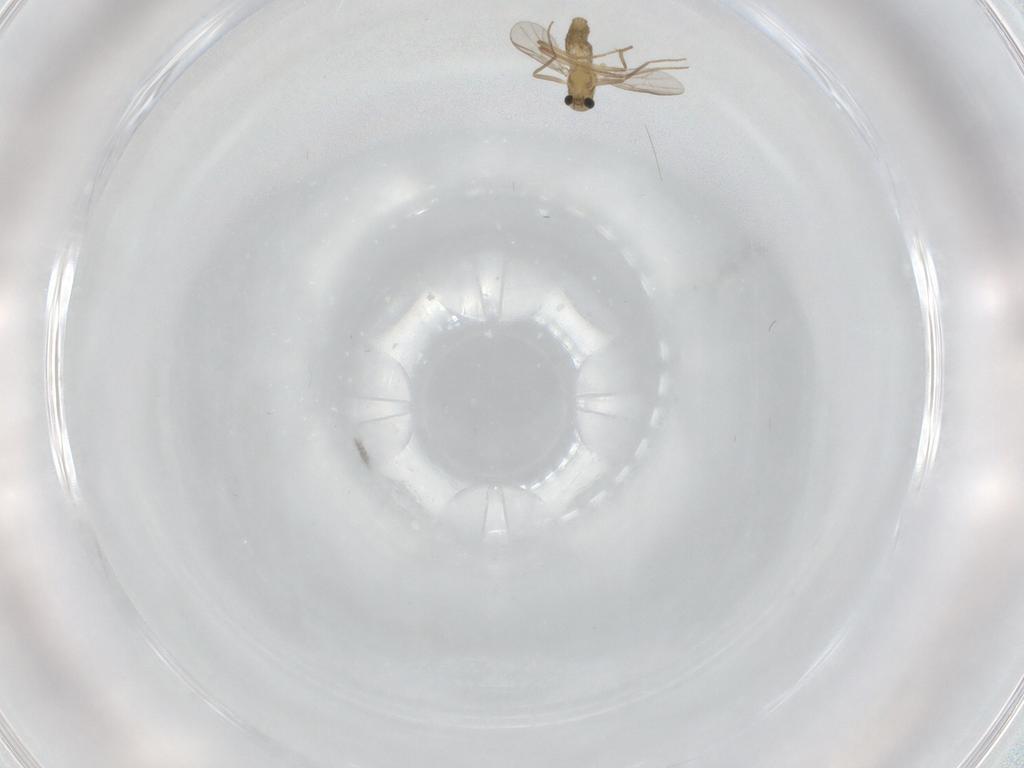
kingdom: Animalia
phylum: Arthropoda
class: Insecta
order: Diptera
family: Chironomidae
